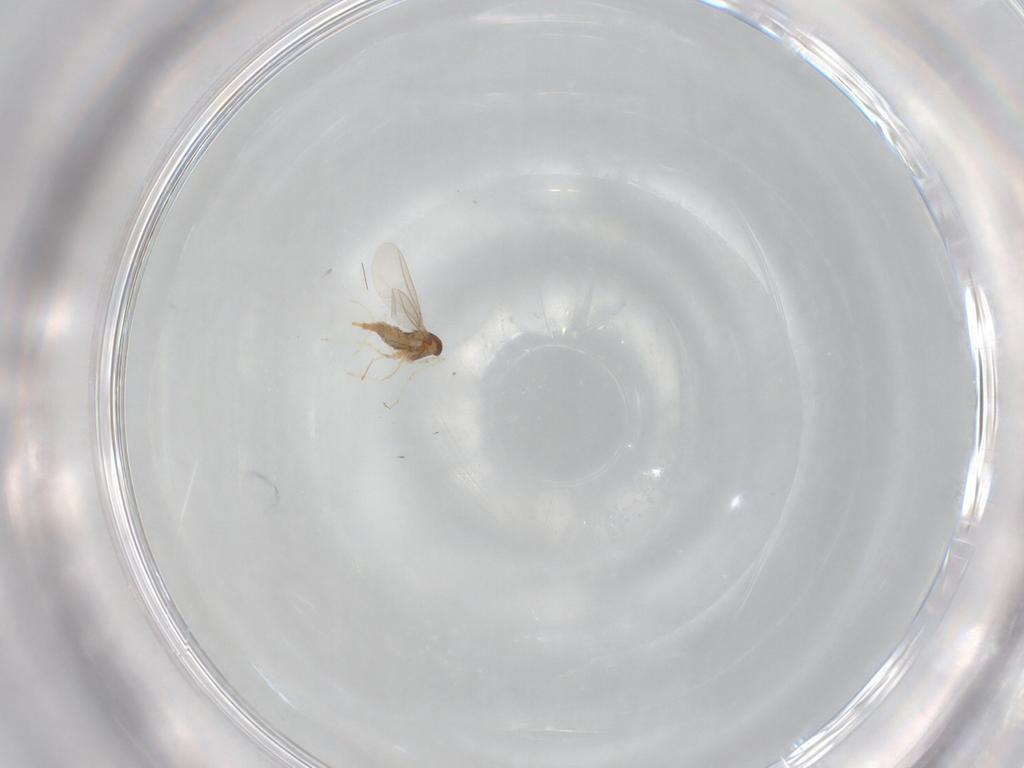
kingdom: Animalia
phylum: Arthropoda
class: Insecta
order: Diptera
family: Cecidomyiidae
